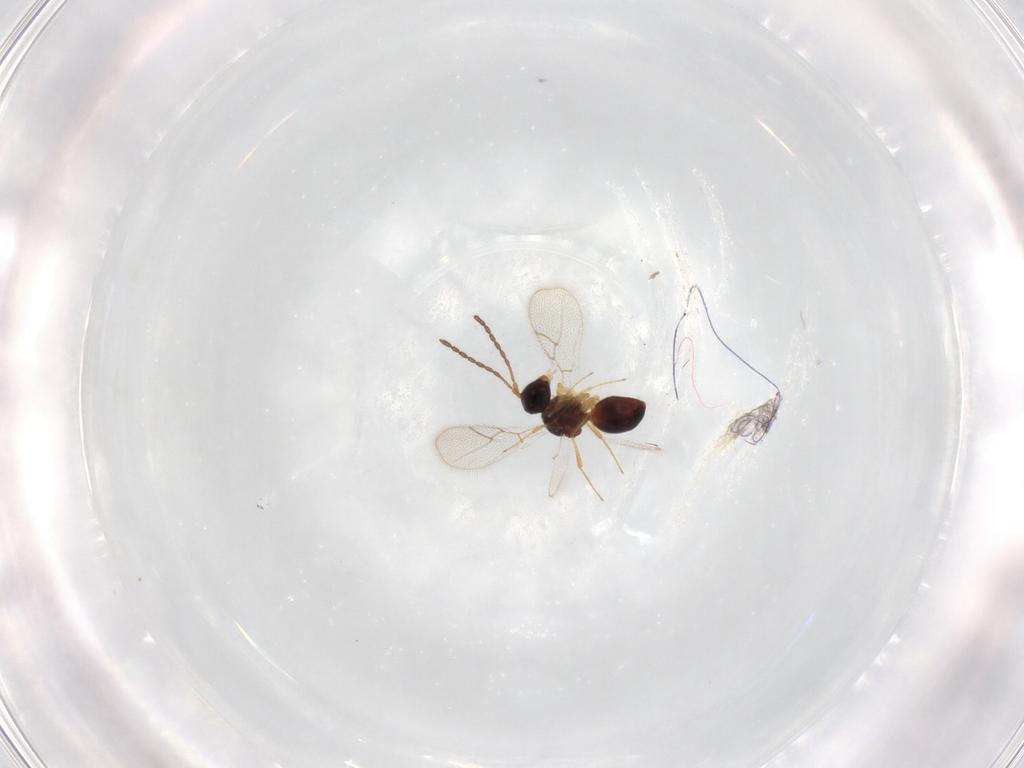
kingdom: Animalia
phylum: Arthropoda
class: Insecta
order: Hymenoptera
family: Figitidae
